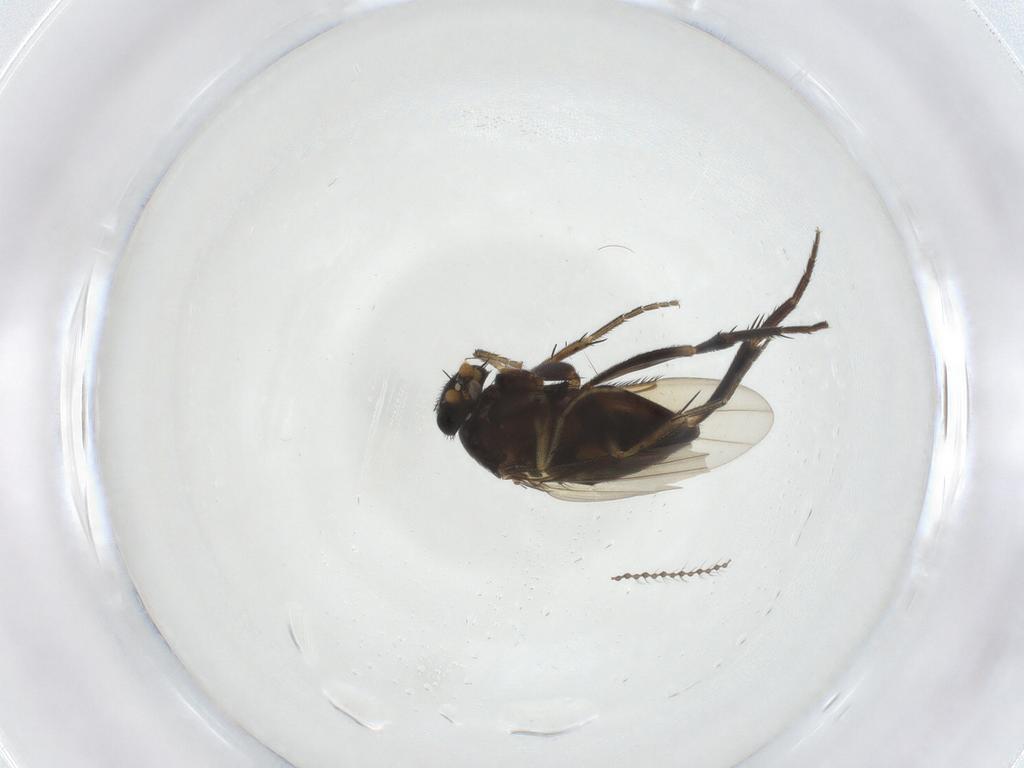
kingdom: Animalia
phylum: Arthropoda
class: Insecta
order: Diptera
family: Phoridae
